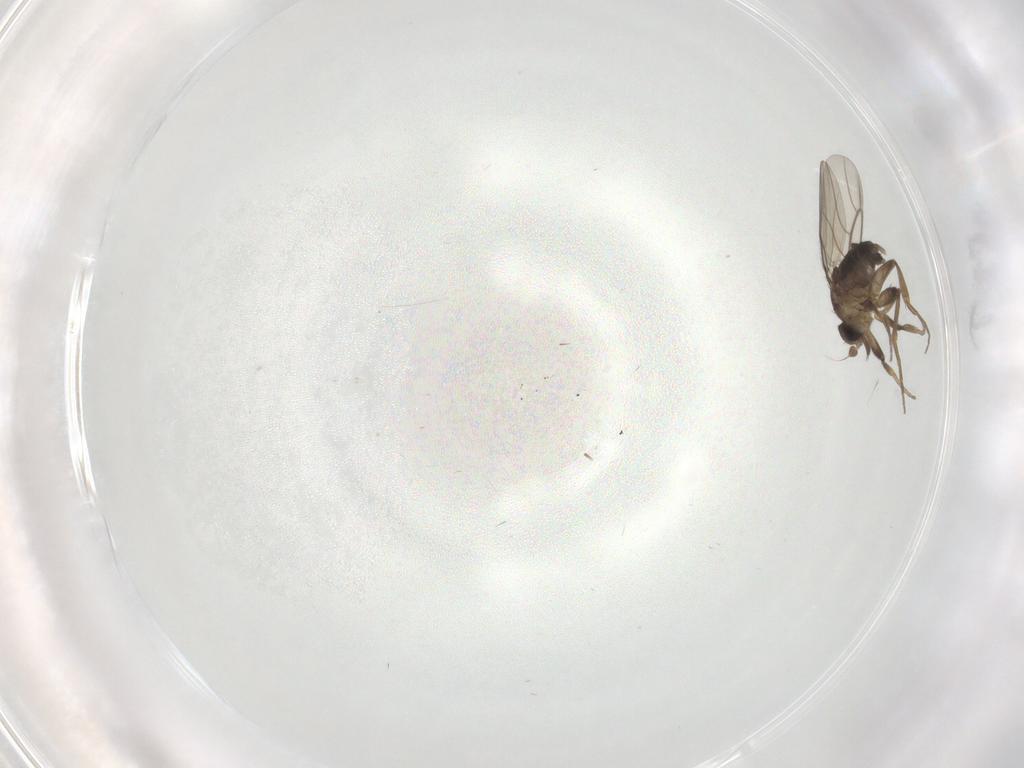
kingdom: Animalia
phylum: Arthropoda
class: Insecta
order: Diptera
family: Phoridae
